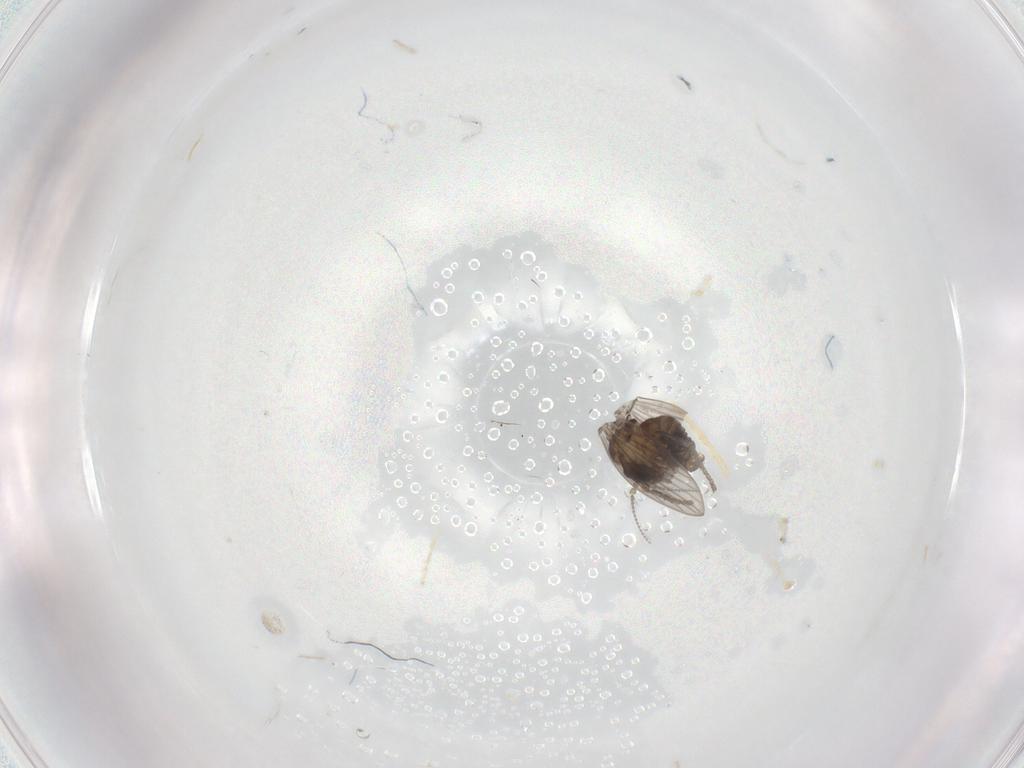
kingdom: Animalia
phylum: Arthropoda
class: Insecta
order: Diptera
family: Psychodidae
